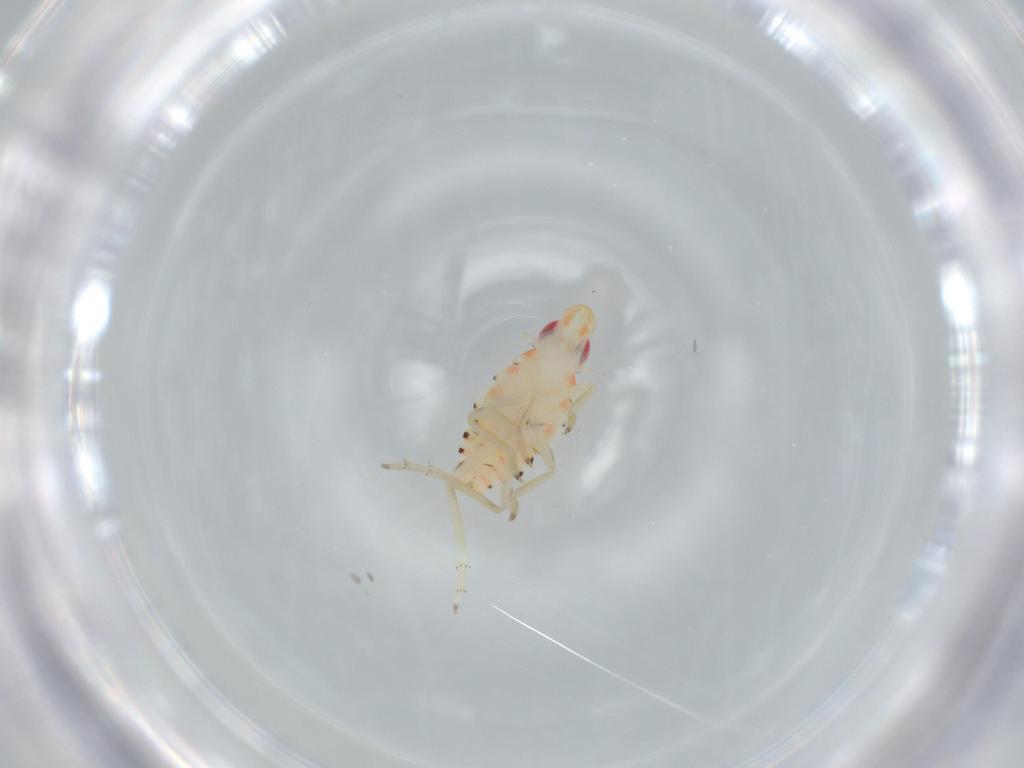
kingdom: Animalia
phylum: Arthropoda
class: Insecta
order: Hemiptera
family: Tropiduchidae
